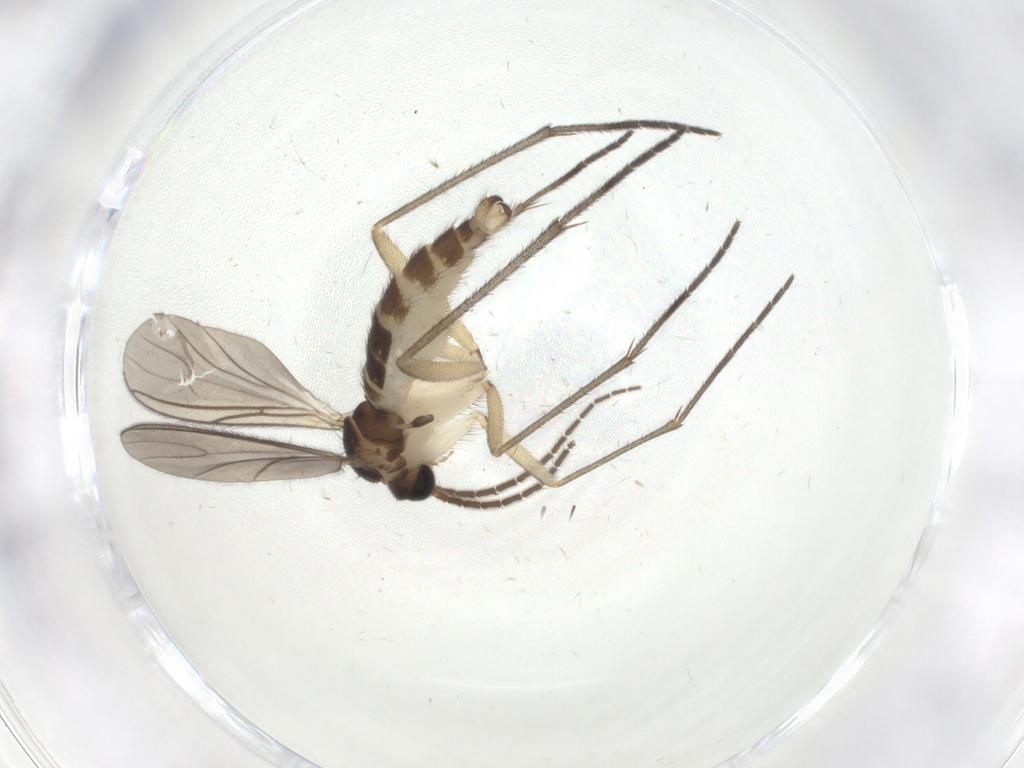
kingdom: Animalia
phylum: Arthropoda
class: Insecta
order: Diptera
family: Sciaridae
